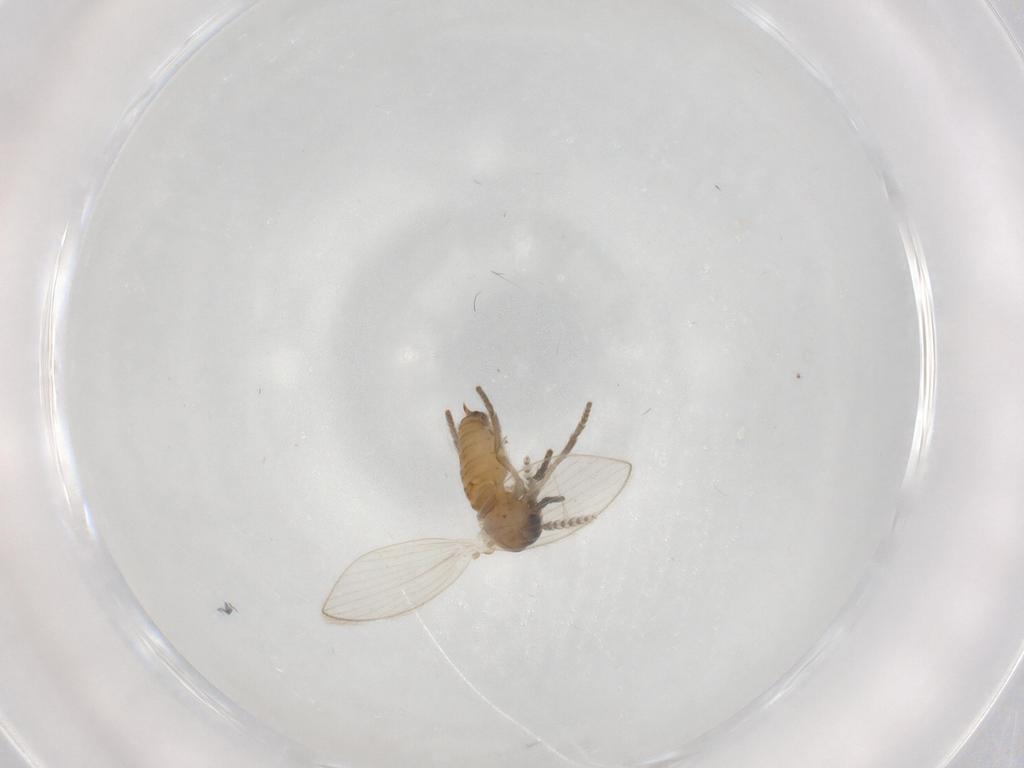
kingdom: Animalia
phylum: Arthropoda
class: Insecta
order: Diptera
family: Psychodidae
